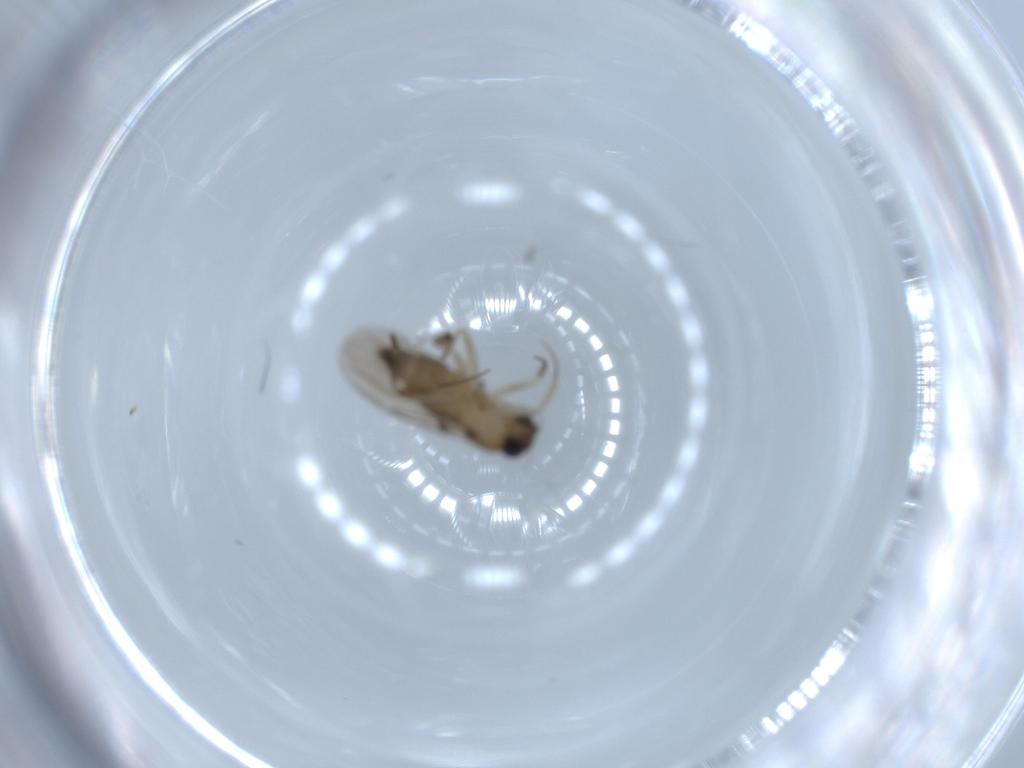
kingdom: Animalia
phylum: Arthropoda
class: Insecta
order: Diptera
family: Phoridae
